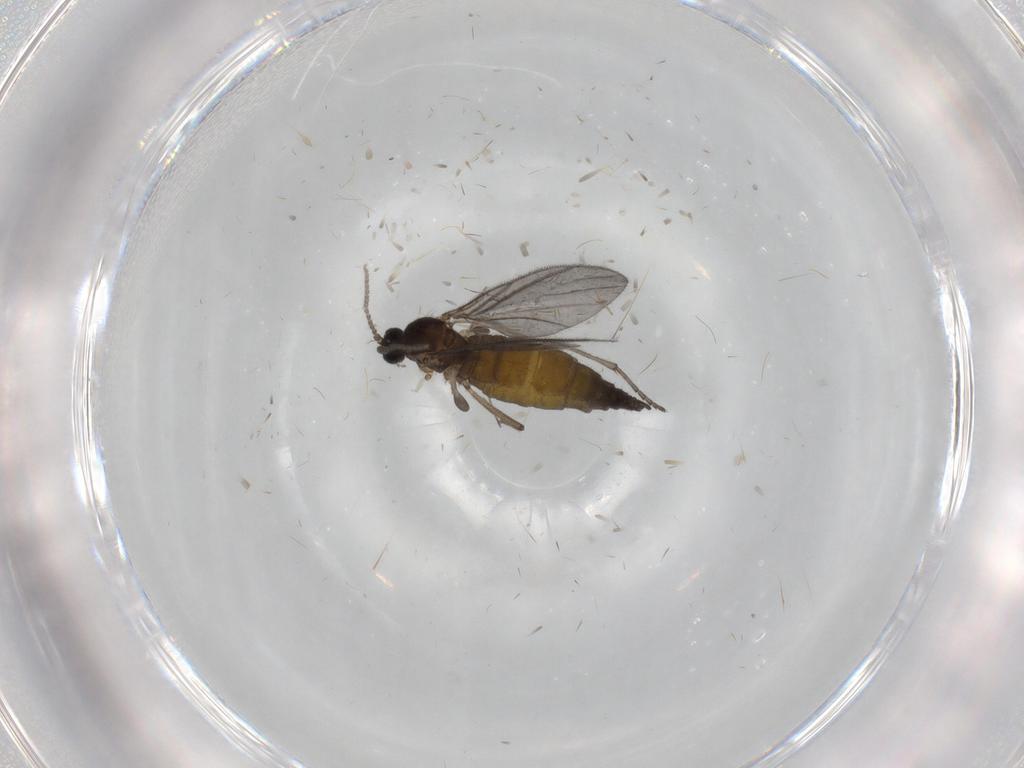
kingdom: Animalia
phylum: Arthropoda
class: Insecta
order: Diptera
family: Sciaridae
